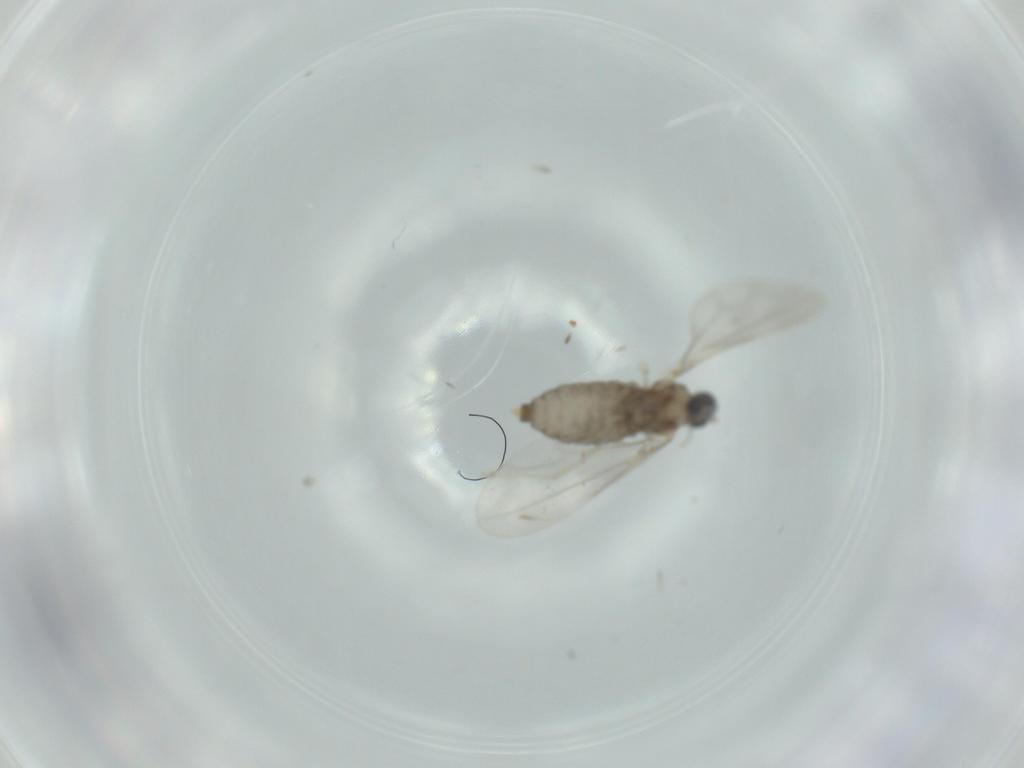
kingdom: Animalia
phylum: Arthropoda
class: Insecta
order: Diptera
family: Cecidomyiidae
